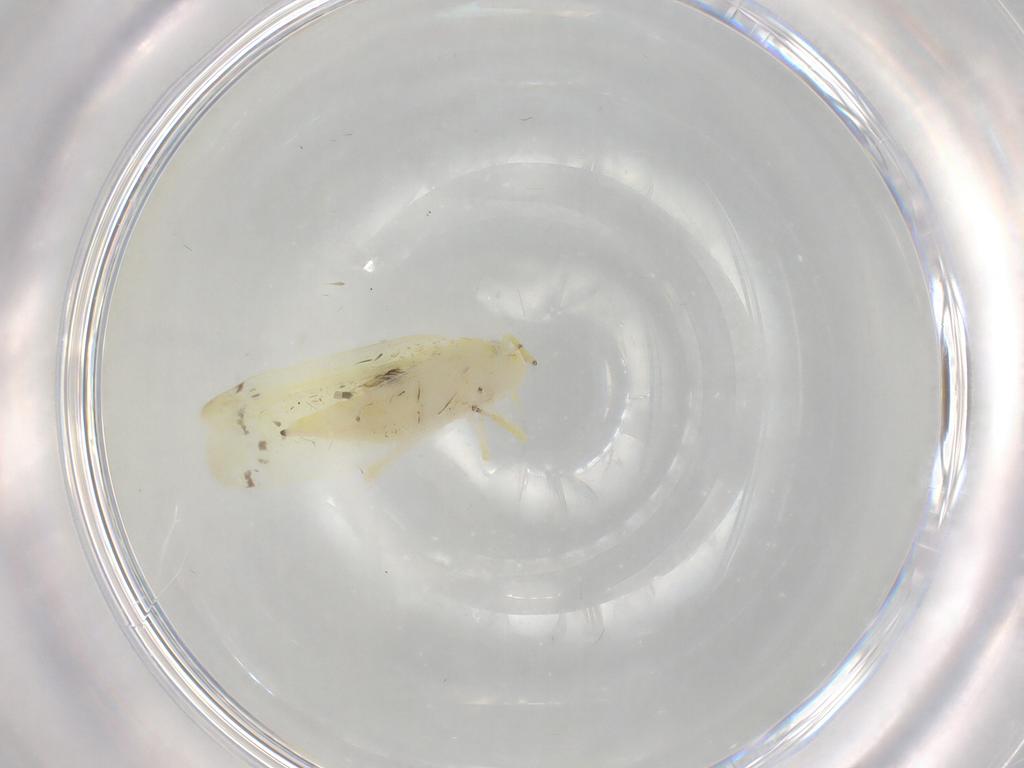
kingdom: Animalia
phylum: Arthropoda
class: Insecta
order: Hemiptera
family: Cicadellidae
